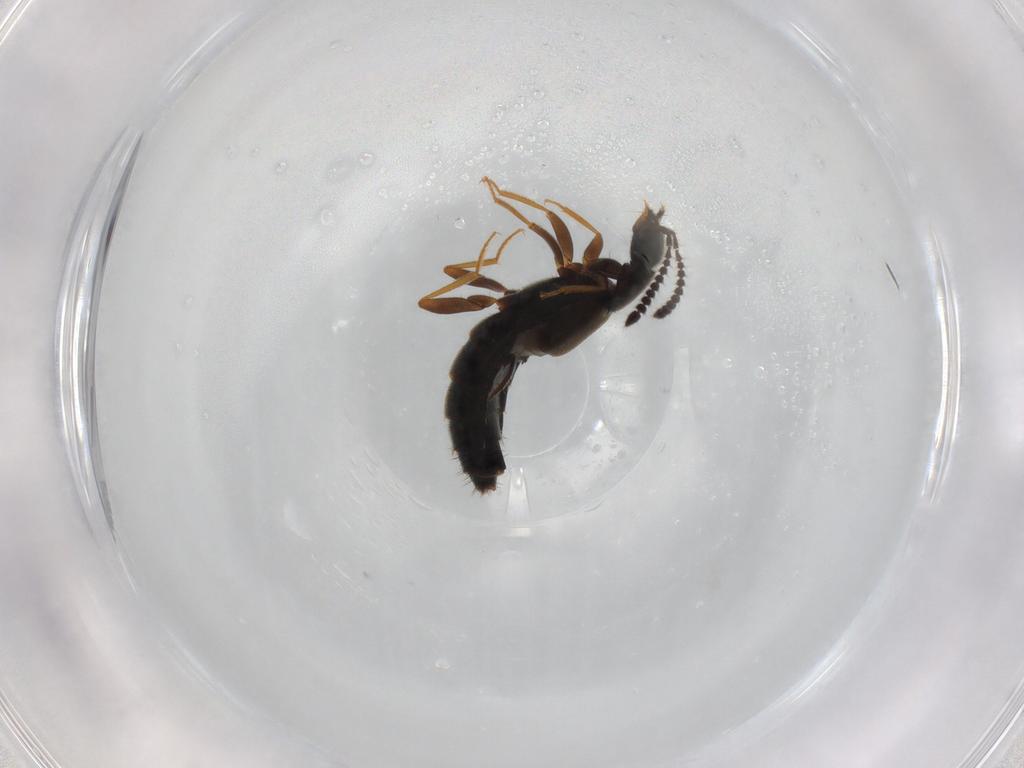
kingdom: Animalia
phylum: Arthropoda
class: Insecta
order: Coleoptera
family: Staphylinidae
